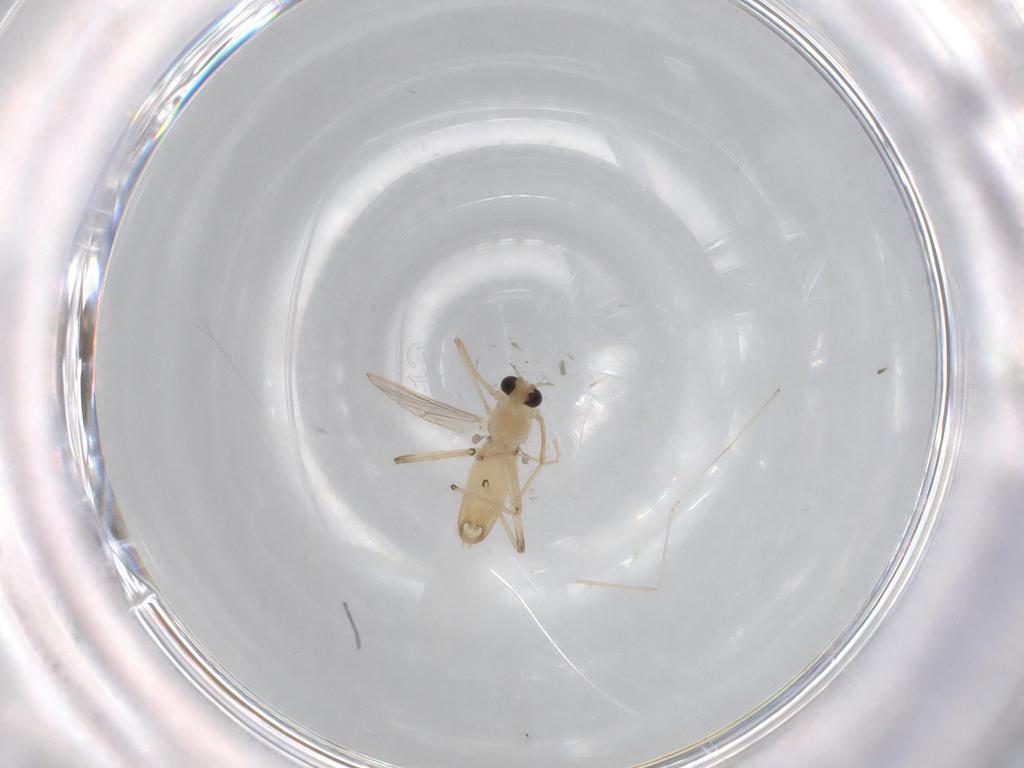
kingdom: Animalia
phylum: Arthropoda
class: Insecta
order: Diptera
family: Cecidomyiidae
